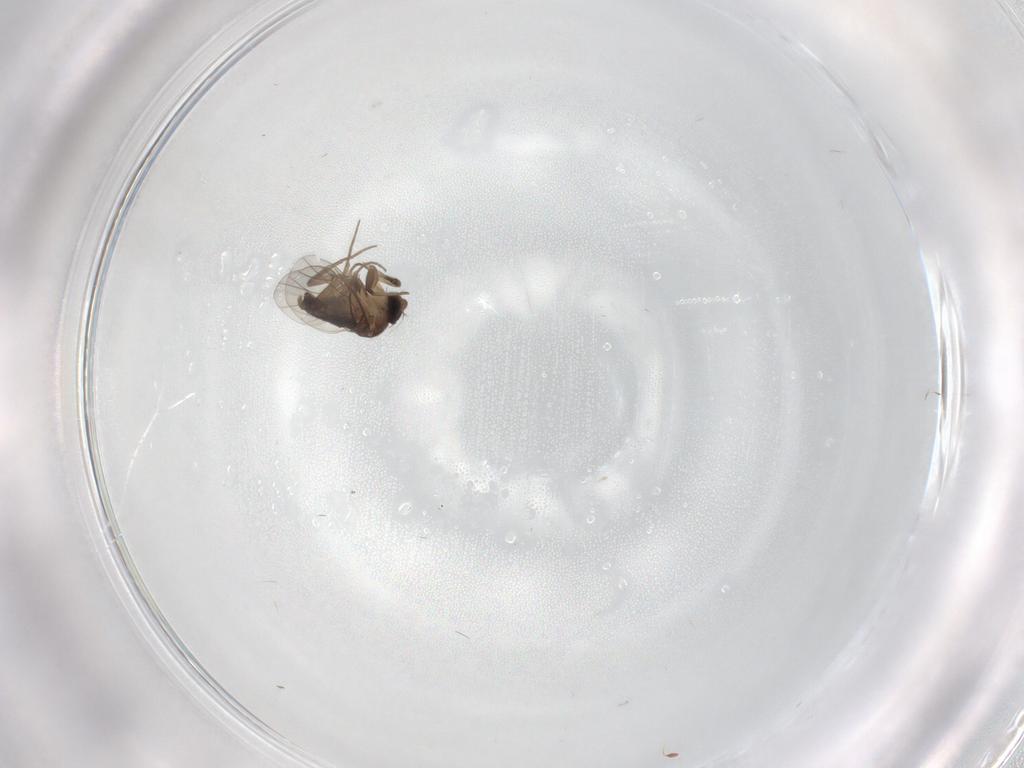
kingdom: Animalia
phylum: Arthropoda
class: Insecta
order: Diptera
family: Phoridae
